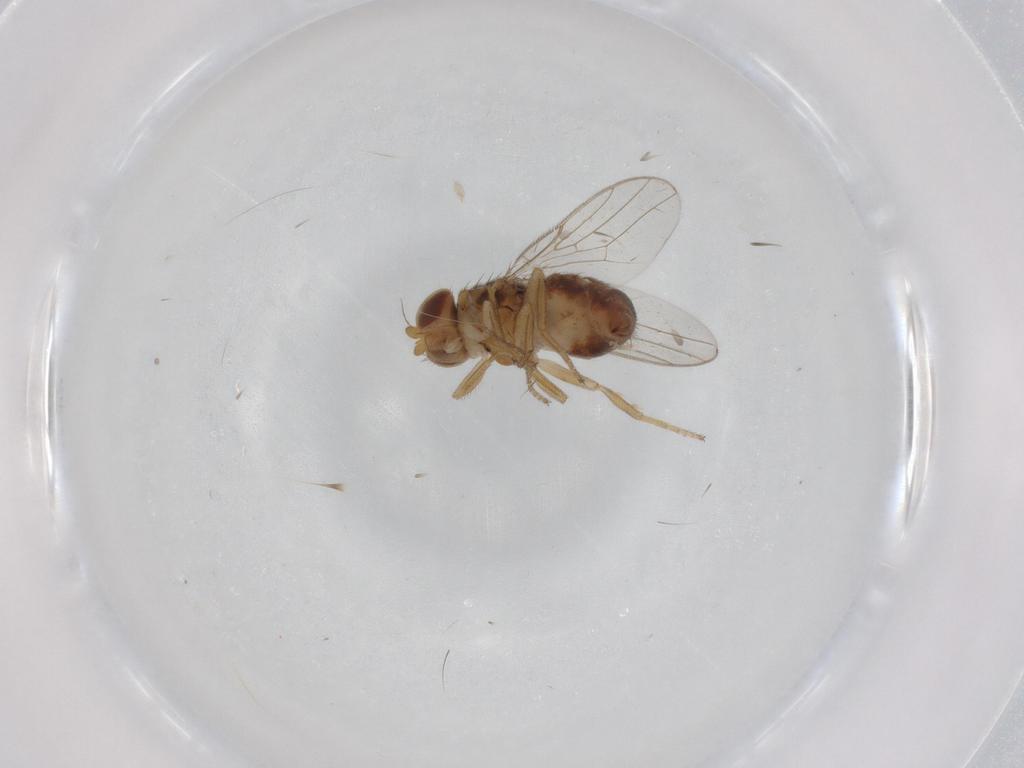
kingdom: Animalia
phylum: Arthropoda
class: Insecta
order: Diptera
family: Chloropidae
